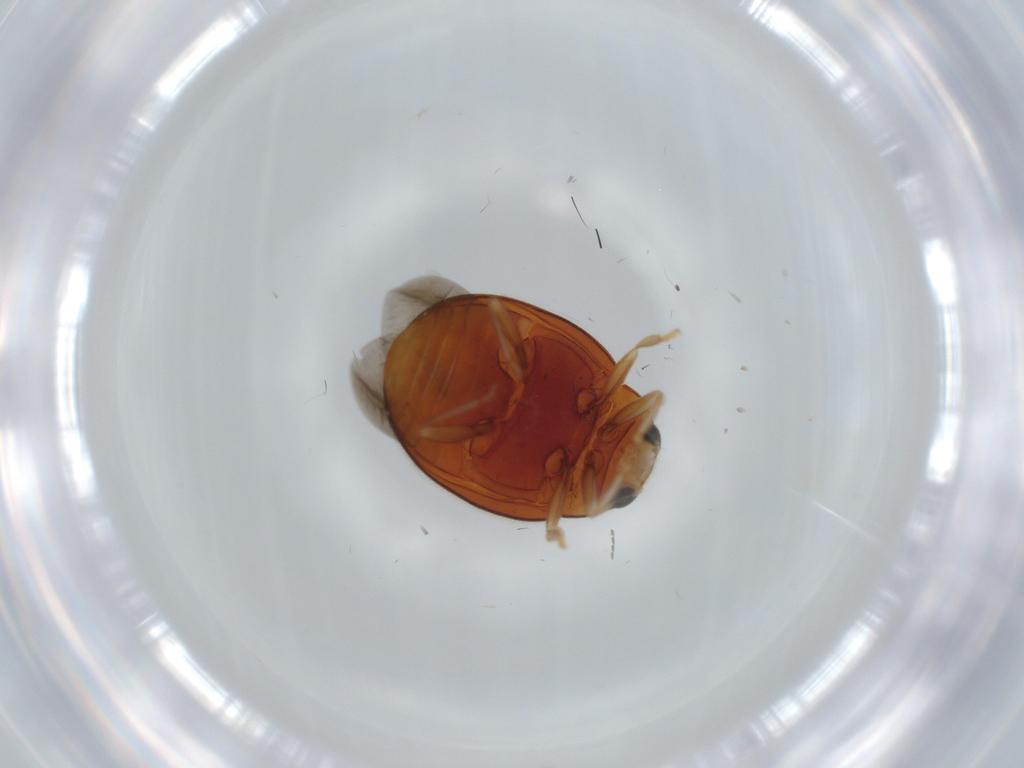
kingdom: Animalia
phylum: Arthropoda
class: Insecta
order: Coleoptera
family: Coccinellidae
